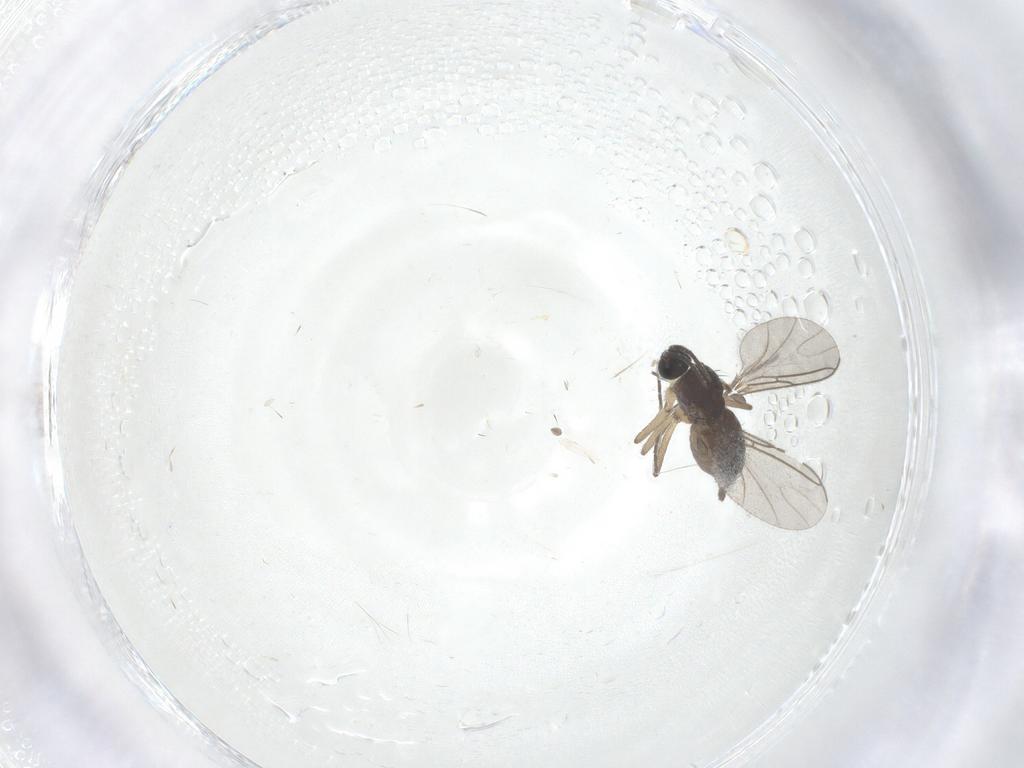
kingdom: Animalia
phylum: Arthropoda
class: Insecta
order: Diptera
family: Sciaridae
